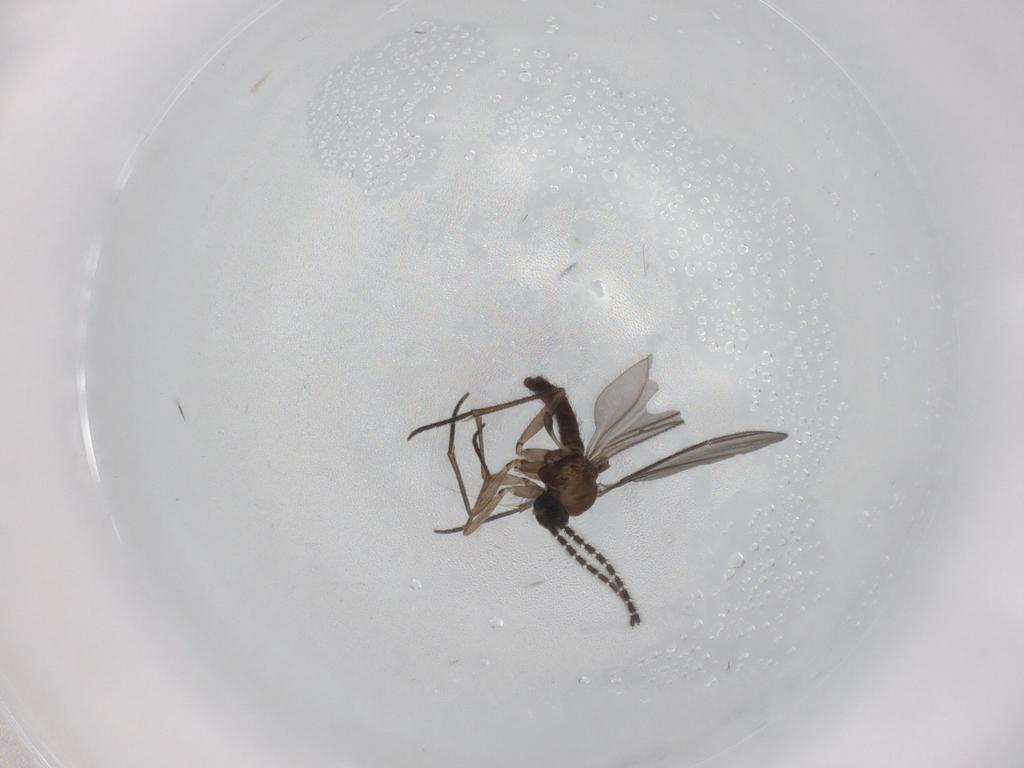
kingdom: Animalia
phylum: Arthropoda
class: Insecta
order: Diptera
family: Sciaridae
